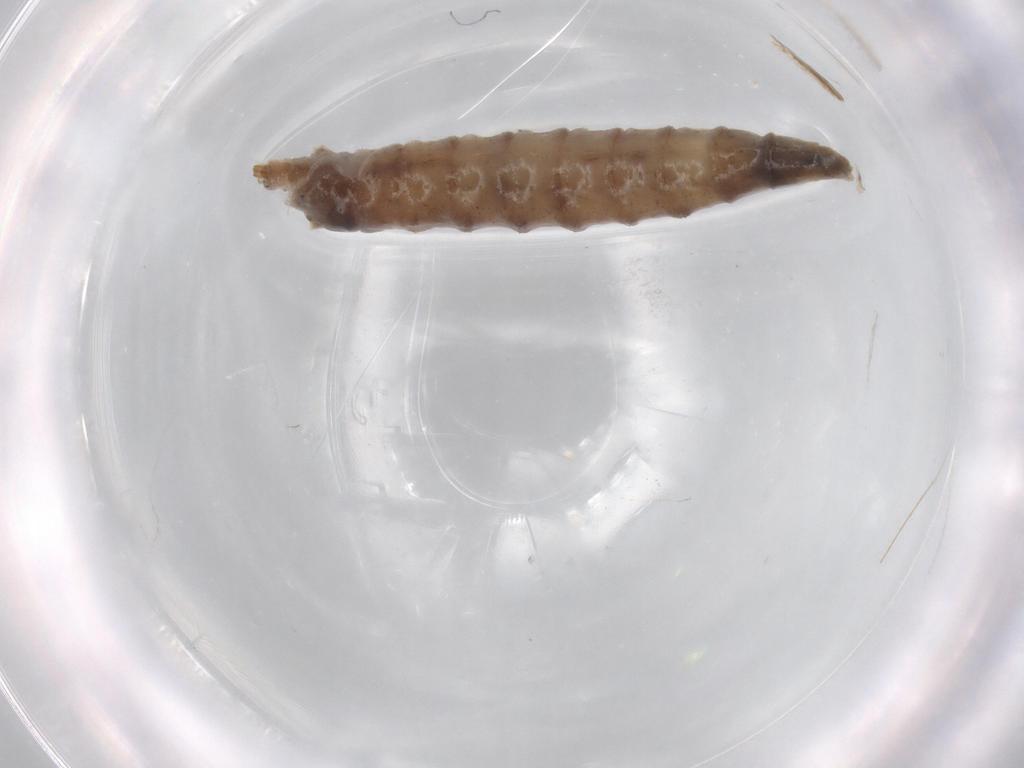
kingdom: Animalia
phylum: Arthropoda
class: Insecta
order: Diptera
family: Drosophilidae
